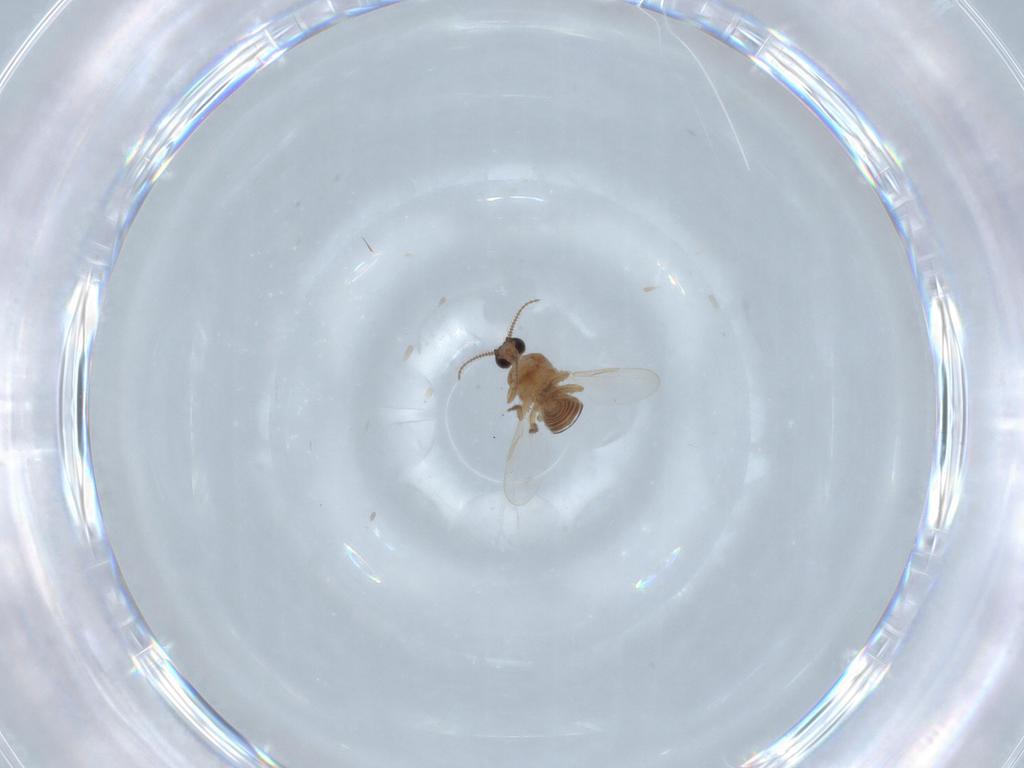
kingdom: Animalia
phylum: Arthropoda
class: Insecta
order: Diptera
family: Ceratopogonidae
